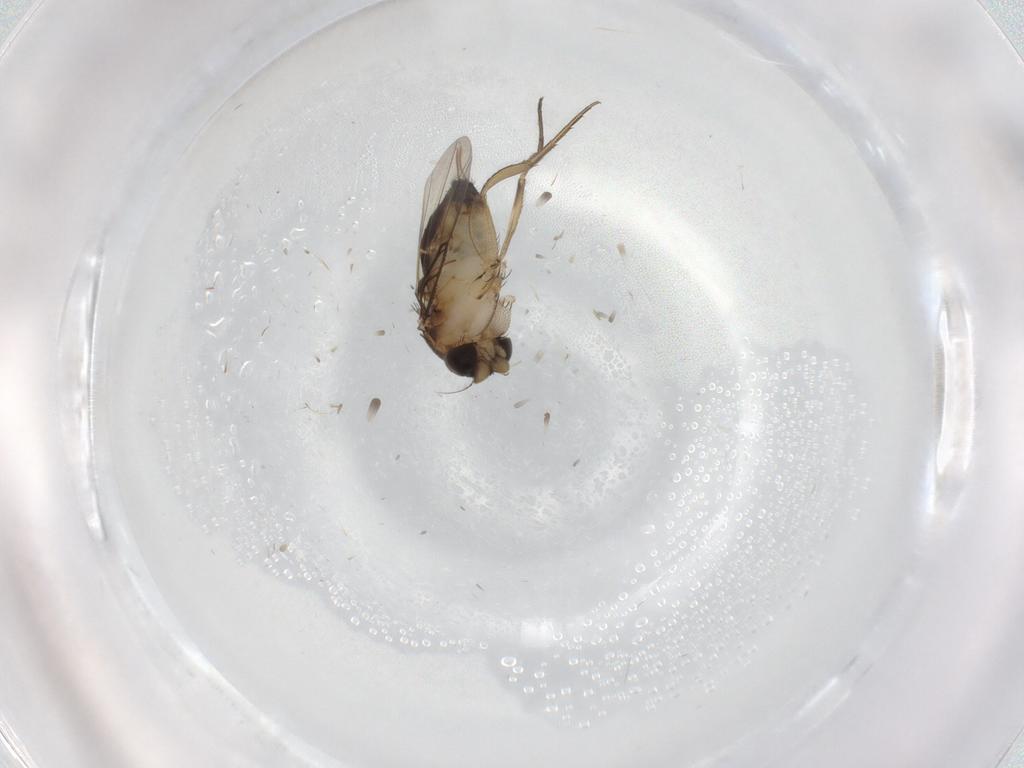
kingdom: Animalia
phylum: Arthropoda
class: Insecta
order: Diptera
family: Phoridae
